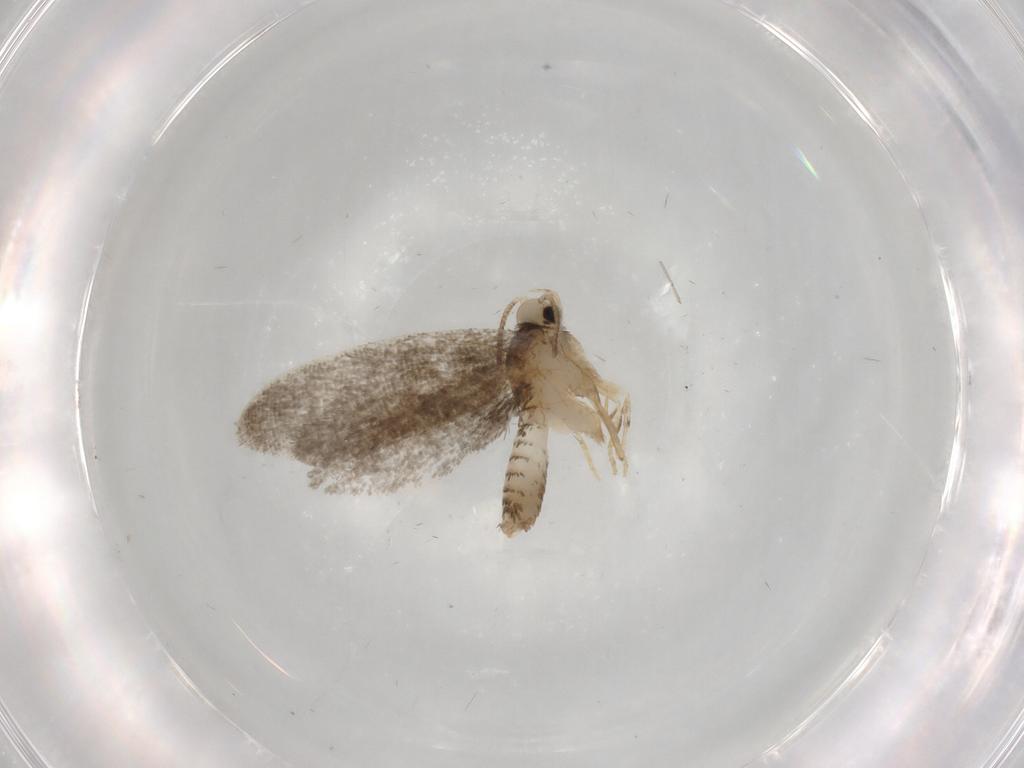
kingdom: Animalia
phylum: Arthropoda
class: Insecta
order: Lepidoptera
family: Psychidae
